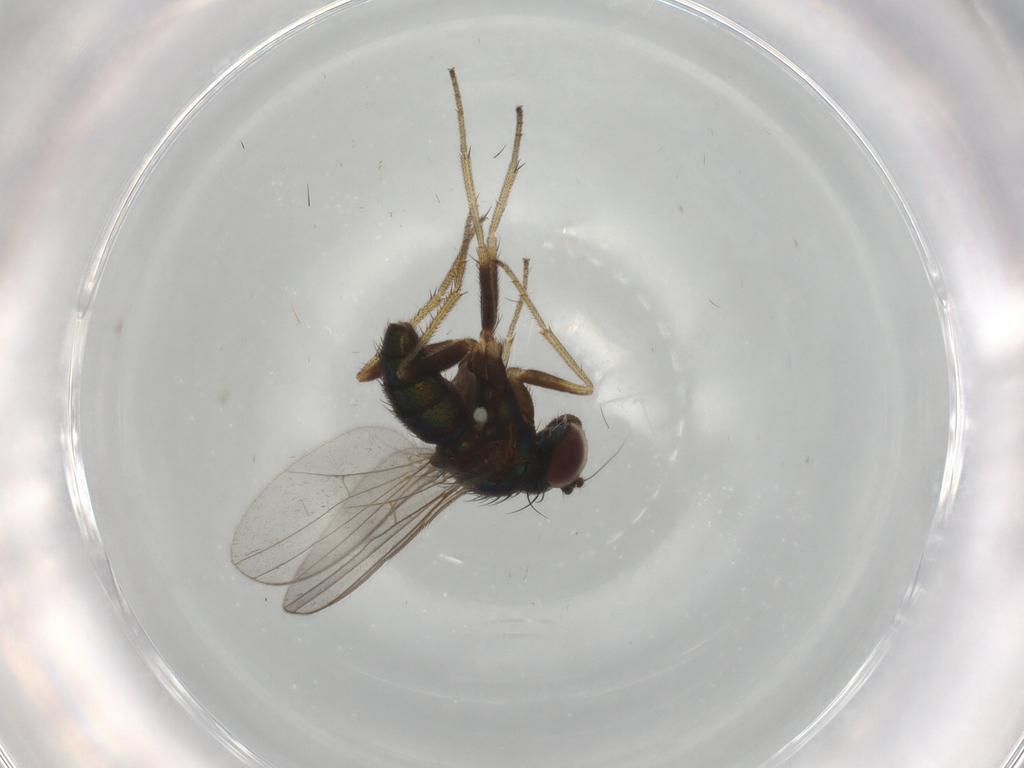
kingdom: Animalia
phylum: Arthropoda
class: Insecta
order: Diptera
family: Dolichopodidae
